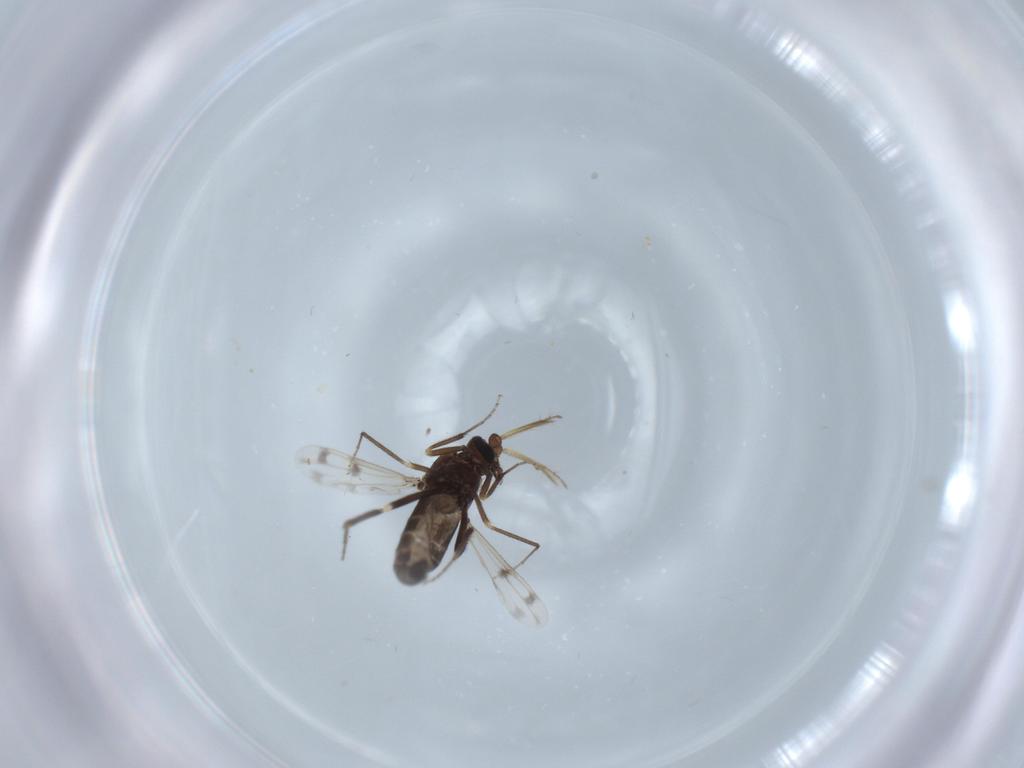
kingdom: Animalia
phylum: Arthropoda
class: Insecta
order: Diptera
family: Ceratopogonidae
